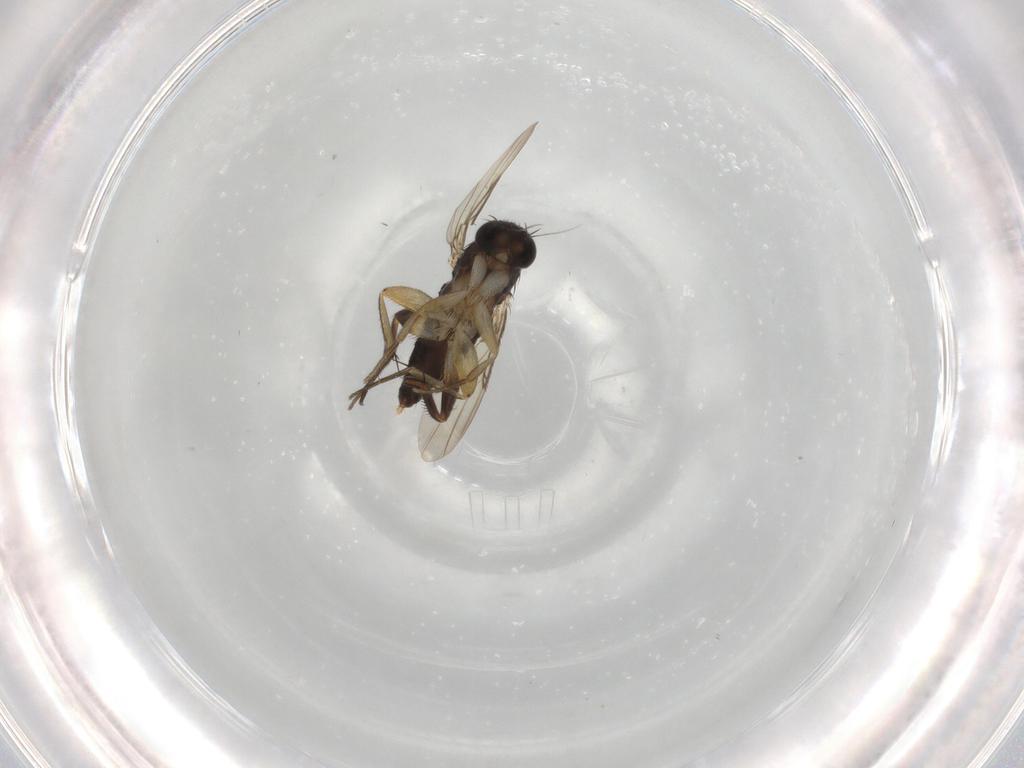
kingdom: Animalia
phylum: Arthropoda
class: Insecta
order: Diptera
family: Phoridae
